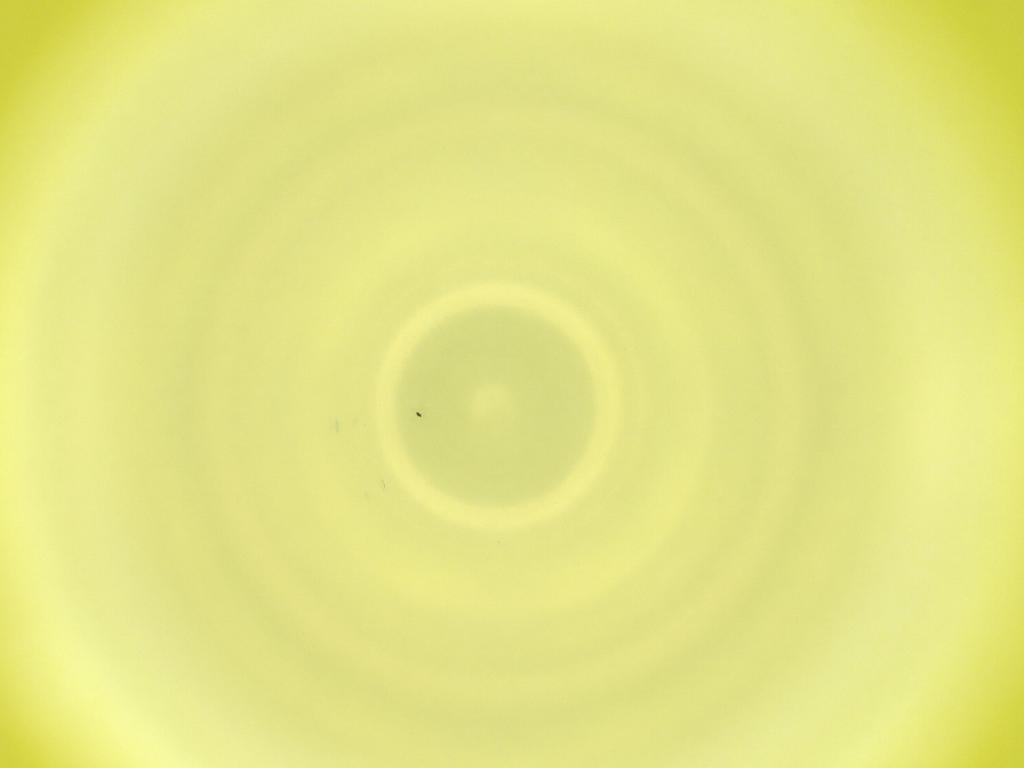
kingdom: Animalia
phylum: Arthropoda
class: Insecta
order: Diptera
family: Cecidomyiidae
